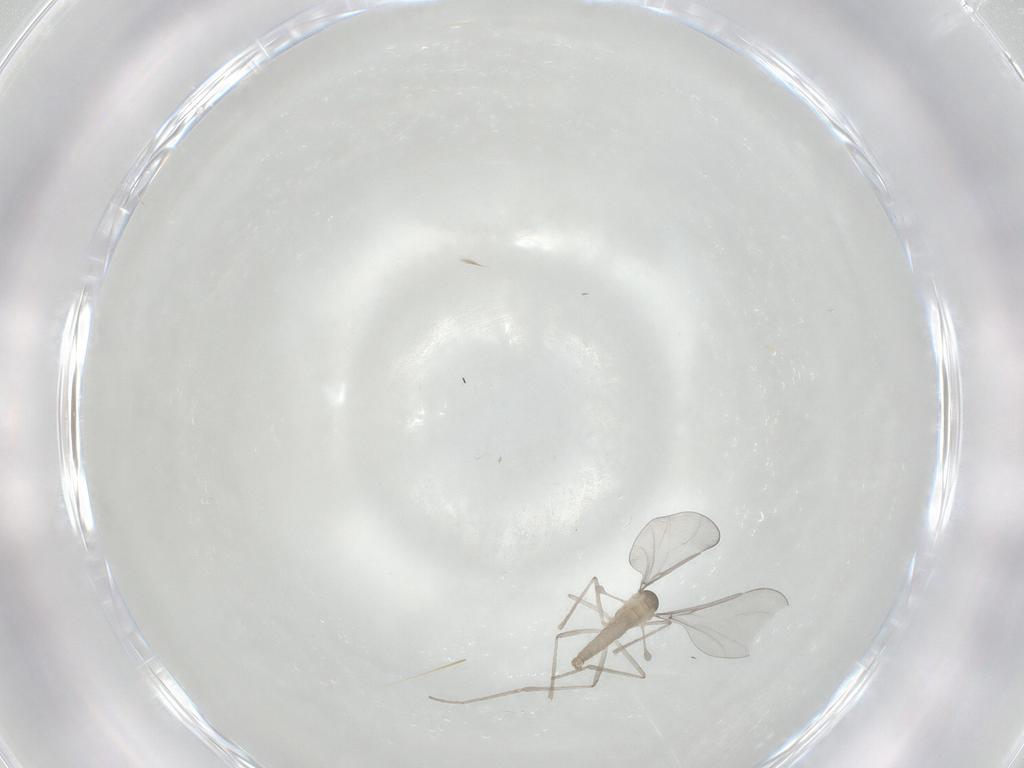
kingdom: Animalia
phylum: Arthropoda
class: Insecta
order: Diptera
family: Cecidomyiidae
